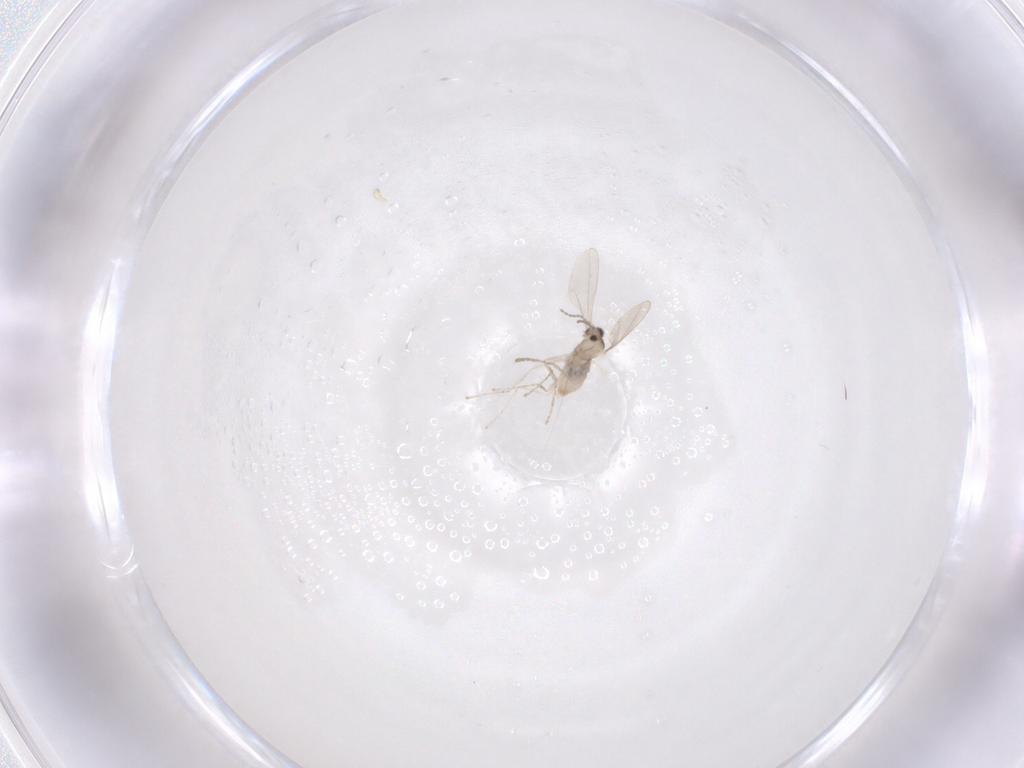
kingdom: Animalia
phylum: Arthropoda
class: Insecta
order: Diptera
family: Cecidomyiidae
